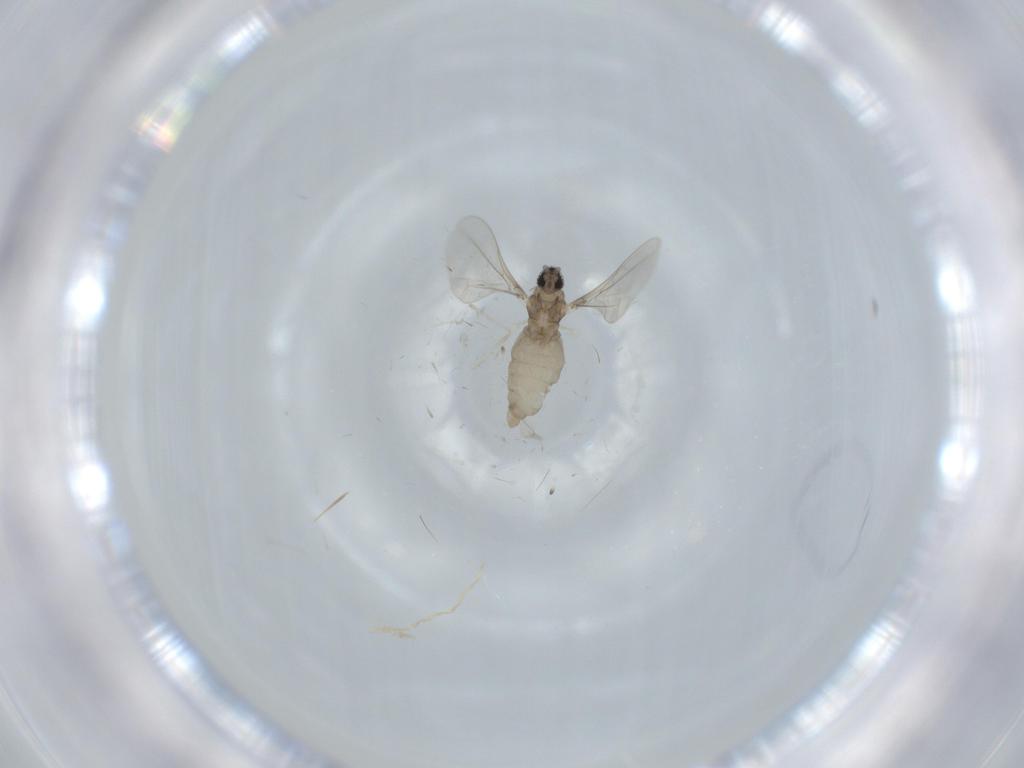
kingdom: Animalia
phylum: Arthropoda
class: Insecta
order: Diptera
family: Cecidomyiidae
